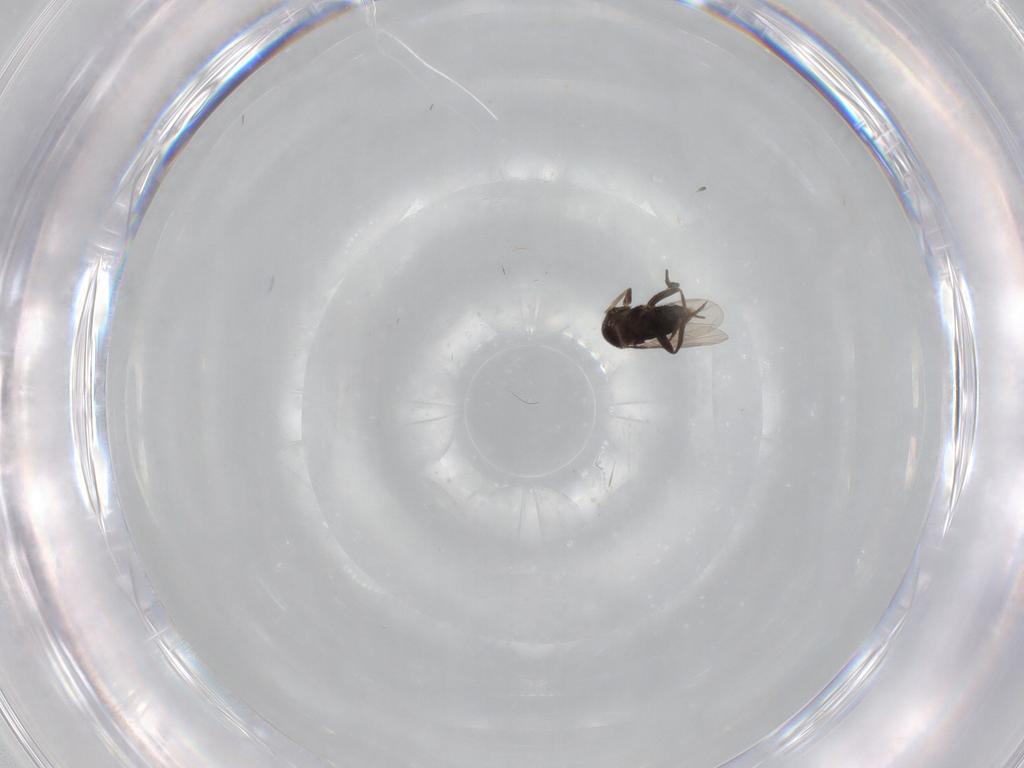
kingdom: Animalia
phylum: Arthropoda
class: Insecta
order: Diptera
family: Phoridae
